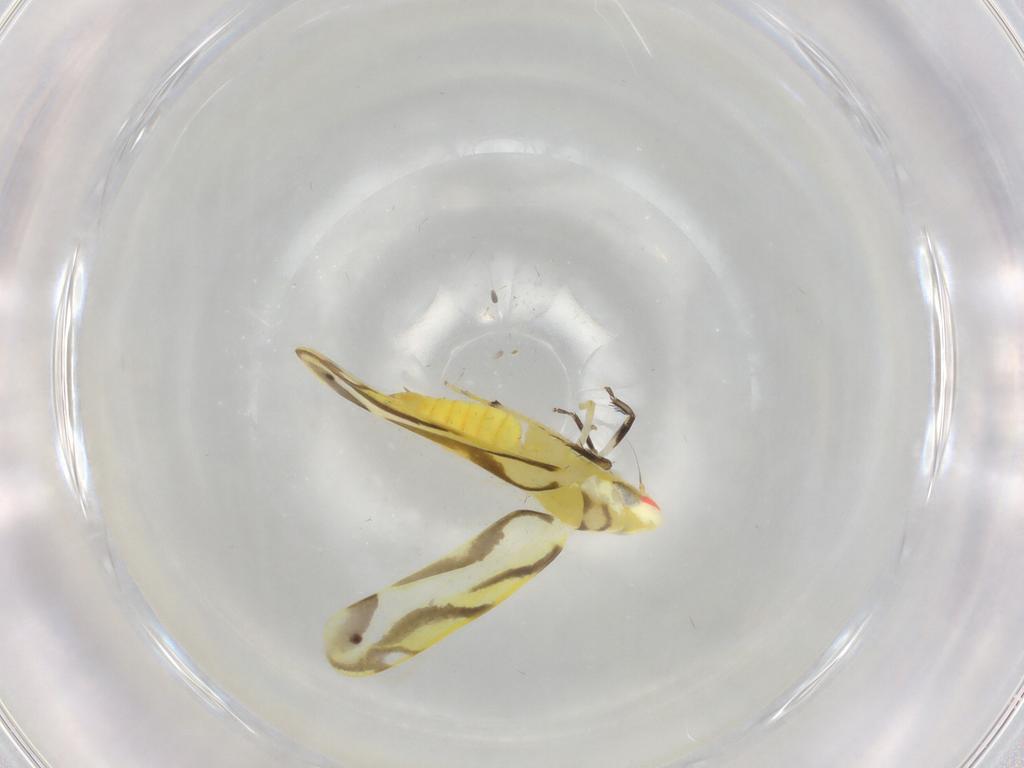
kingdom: Animalia
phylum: Arthropoda
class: Insecta
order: Hemiptera
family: Cicadellidae
